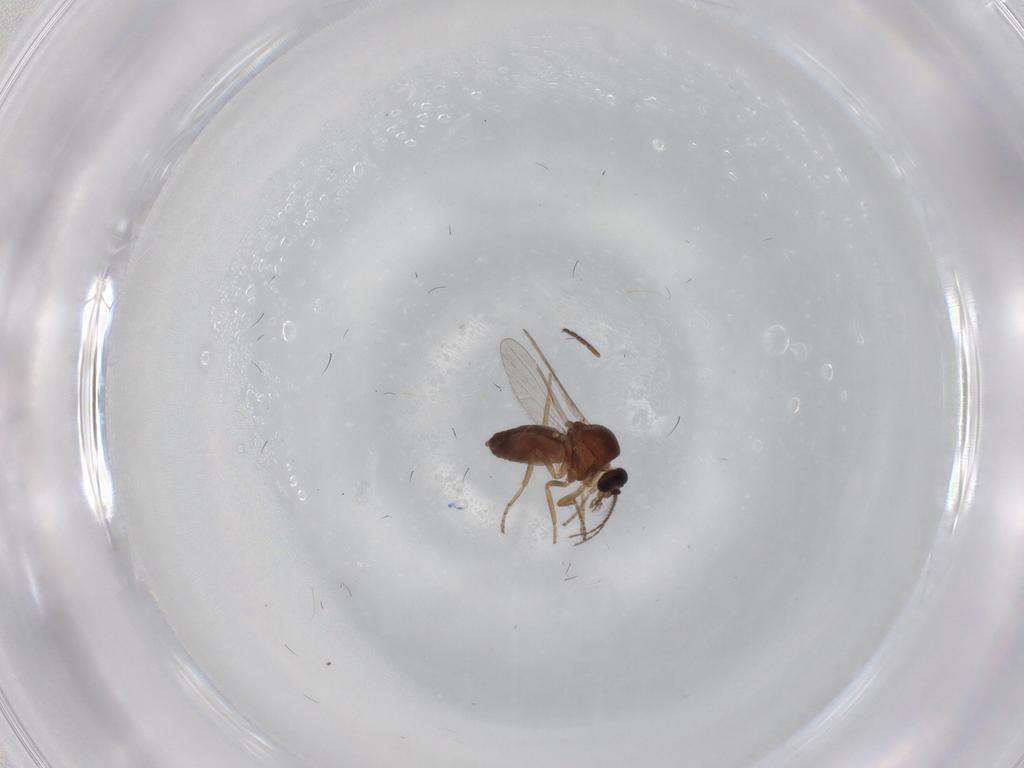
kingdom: Animalia
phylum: Arthropoda
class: Insecta
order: Diptera
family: Ceratopogonidae
